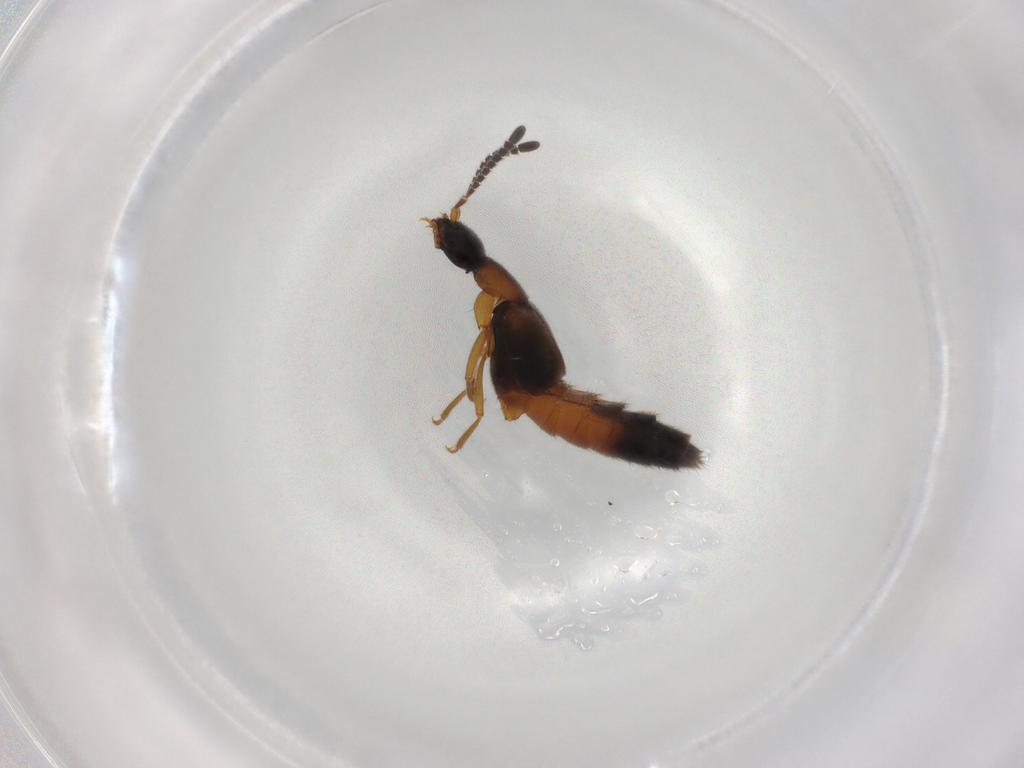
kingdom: Animalia
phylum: Arthropoda
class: Insecta
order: Coleoptera
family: Staphylinidae
